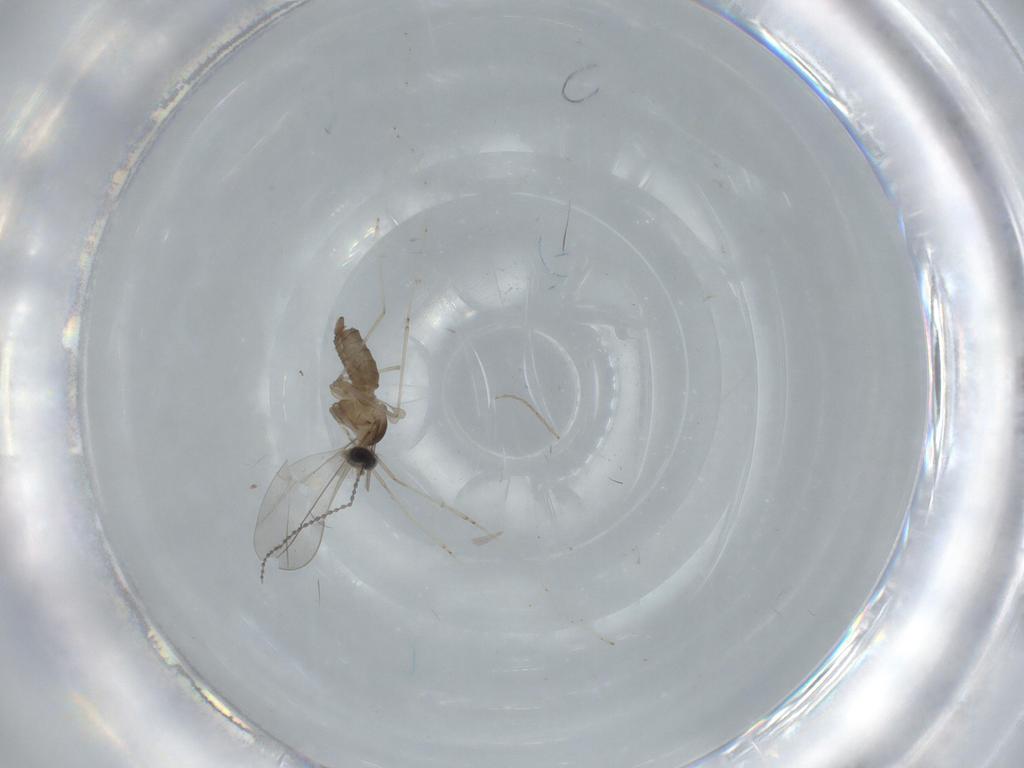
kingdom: Animalia
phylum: Arthropoda
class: Insecta
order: Diptera
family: Cecidomyiidae
